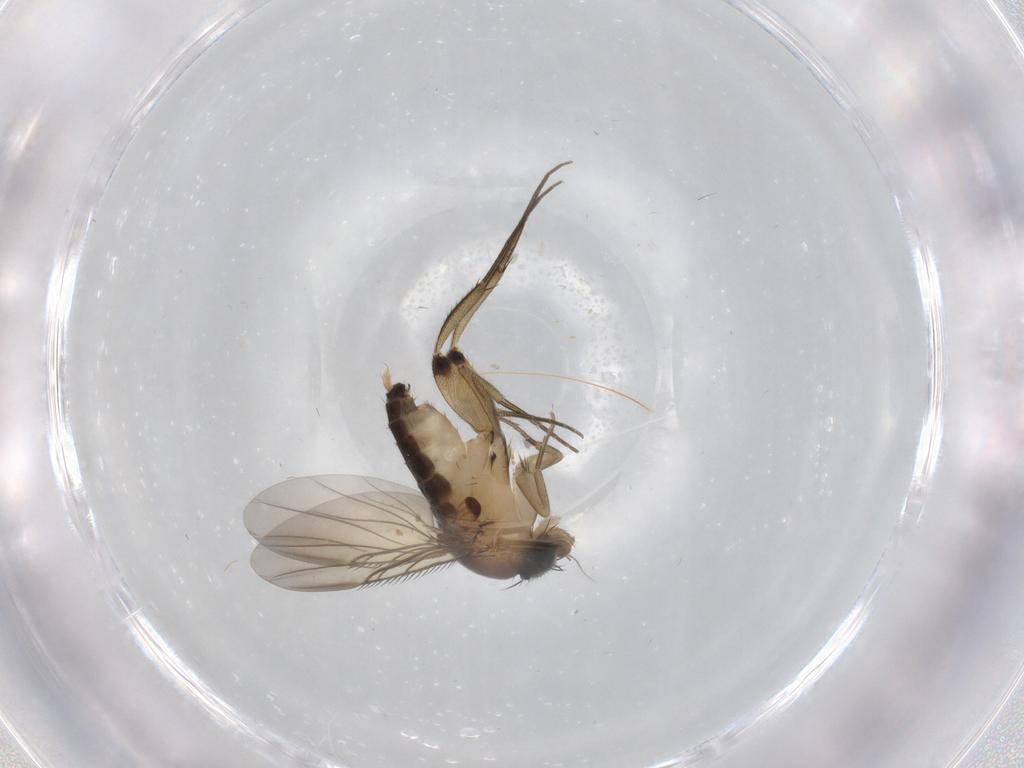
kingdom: Animalia
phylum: Arthropoda
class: Insecta
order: Diptera
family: Phoridae
